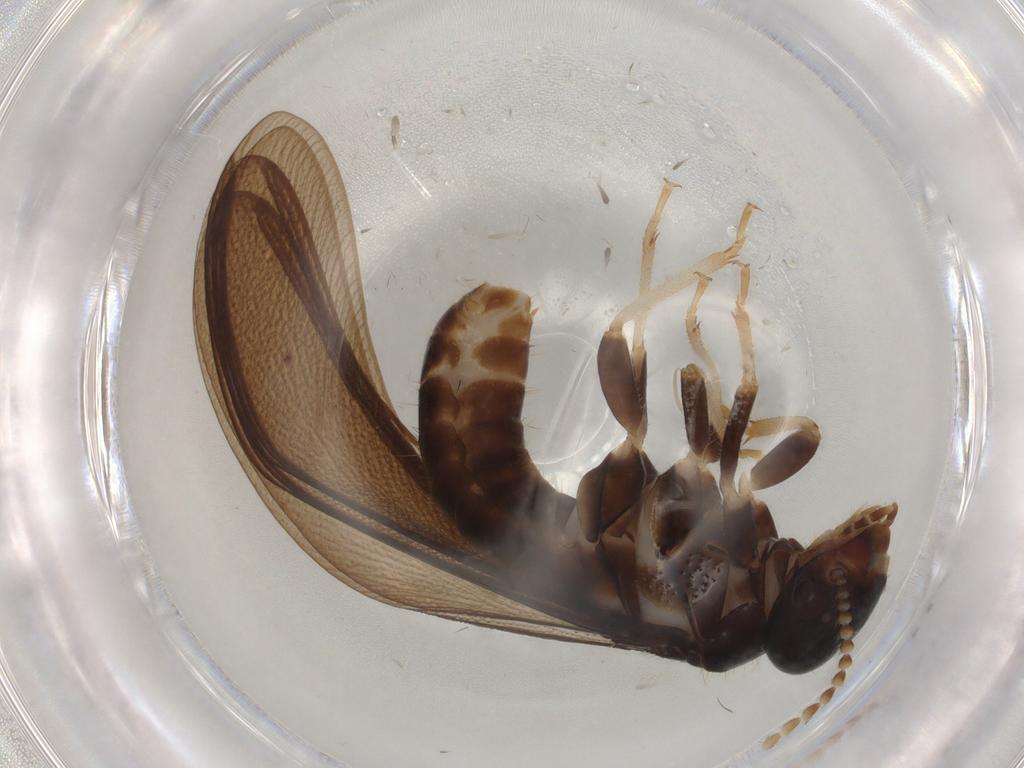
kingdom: Animalia
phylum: Arthropoda
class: Insecta
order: Blattodea
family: Kalotermitidae
